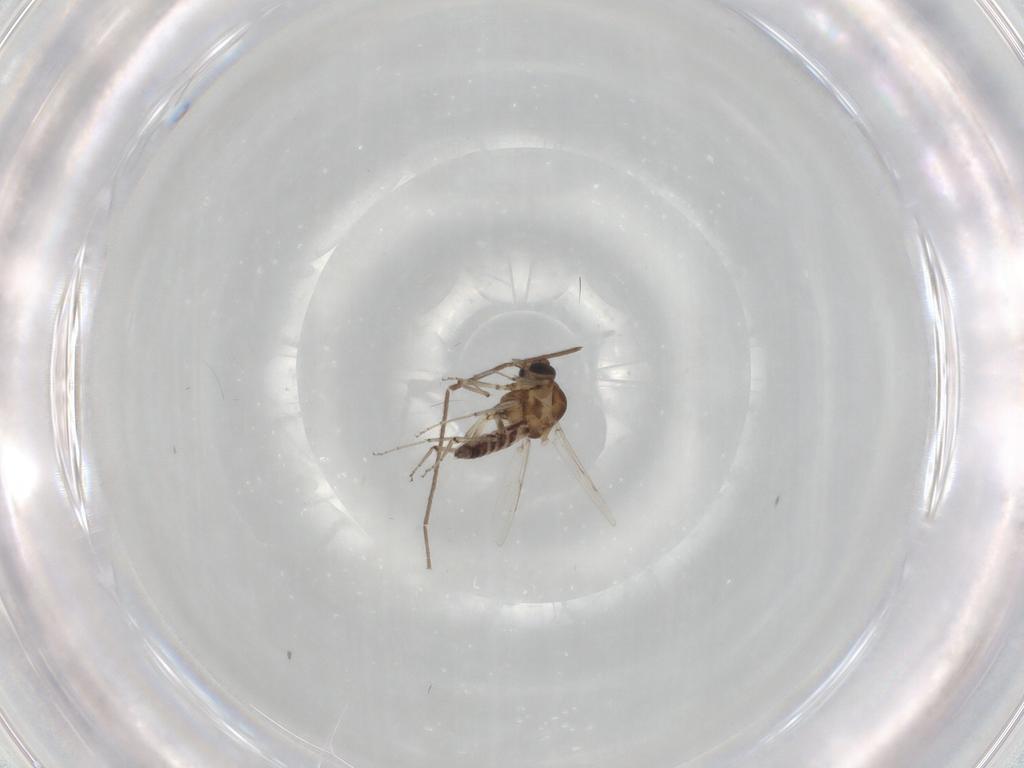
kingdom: Animalia
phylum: Arthropoda
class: Insecta
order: Diptera
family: Ceratopogonidae
